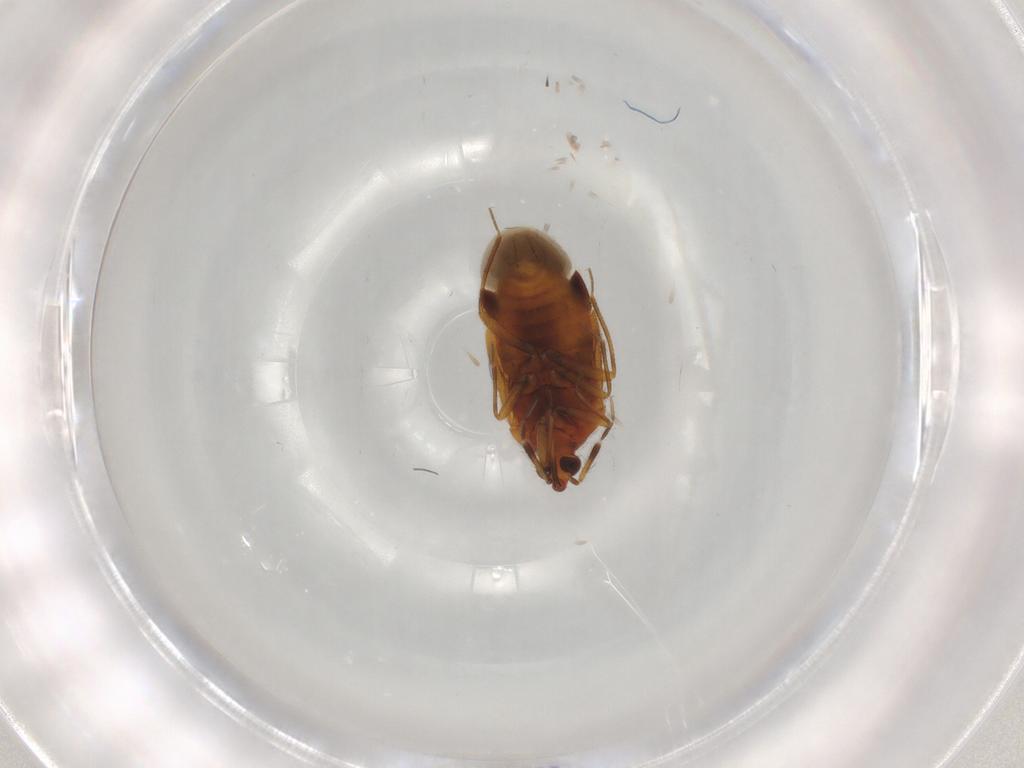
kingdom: Animalia
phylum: Arthropoda
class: Insecta
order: Hemiptera
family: Anthocoridae
